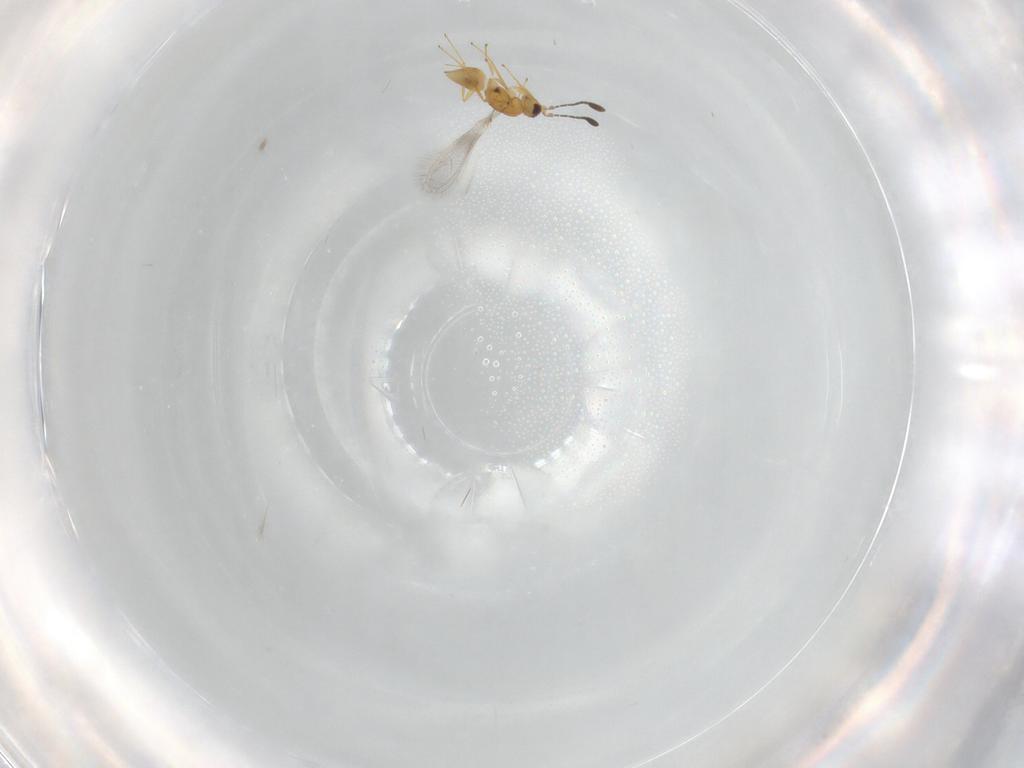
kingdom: Animalia
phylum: Arthropoda
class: Insecta
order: Hymenoptera
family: Mymaridae
